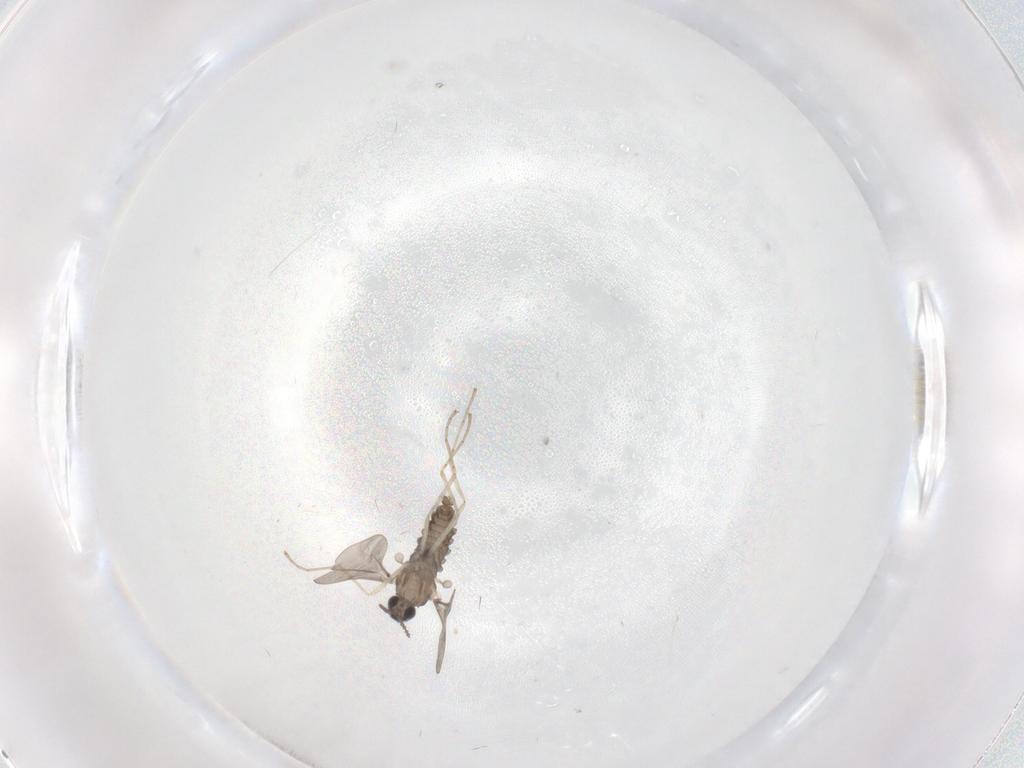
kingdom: Animalia
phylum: Arthropoda
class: Insecta
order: Diptera
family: Cecidomyiidae
